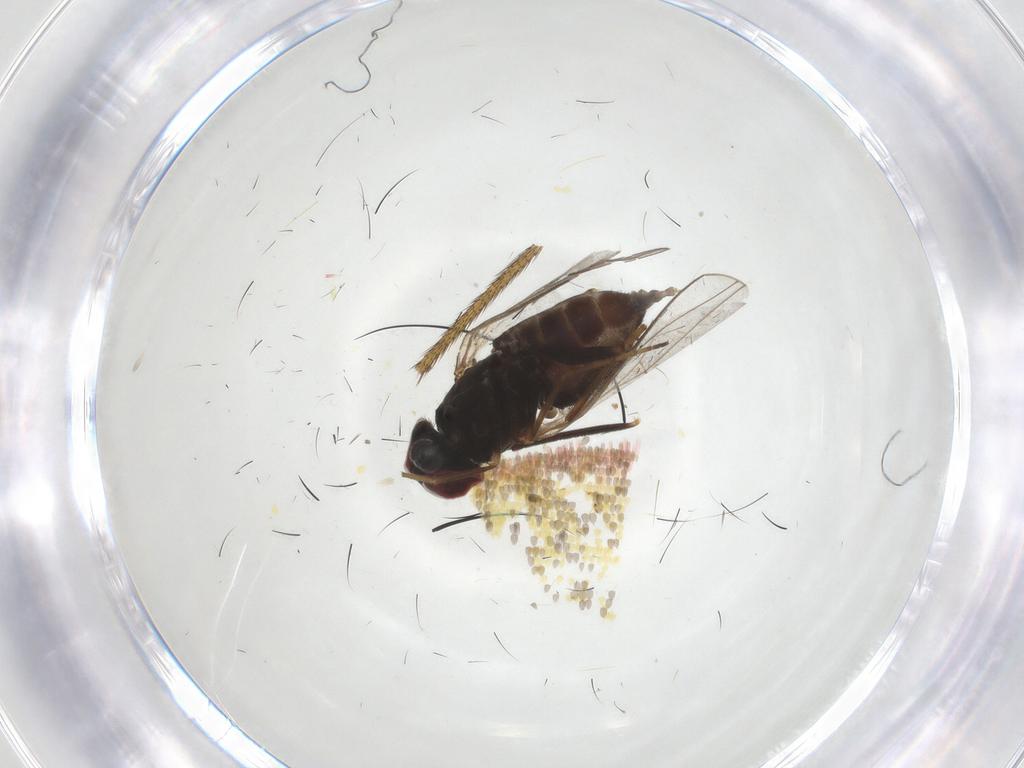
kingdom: Animalia
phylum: Arthropoda
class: Insecta
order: Diptera
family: Dolichopodidae
